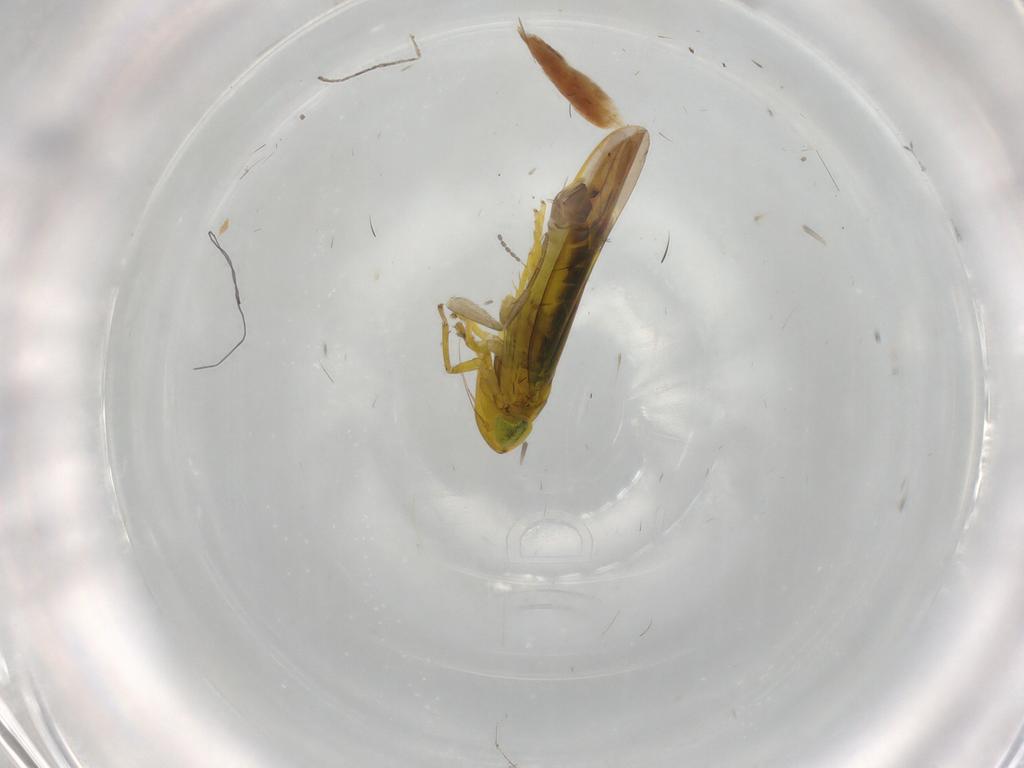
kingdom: Animalia
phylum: Arthropoda
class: Insecta
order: Hemiptera
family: Cicadellidae
